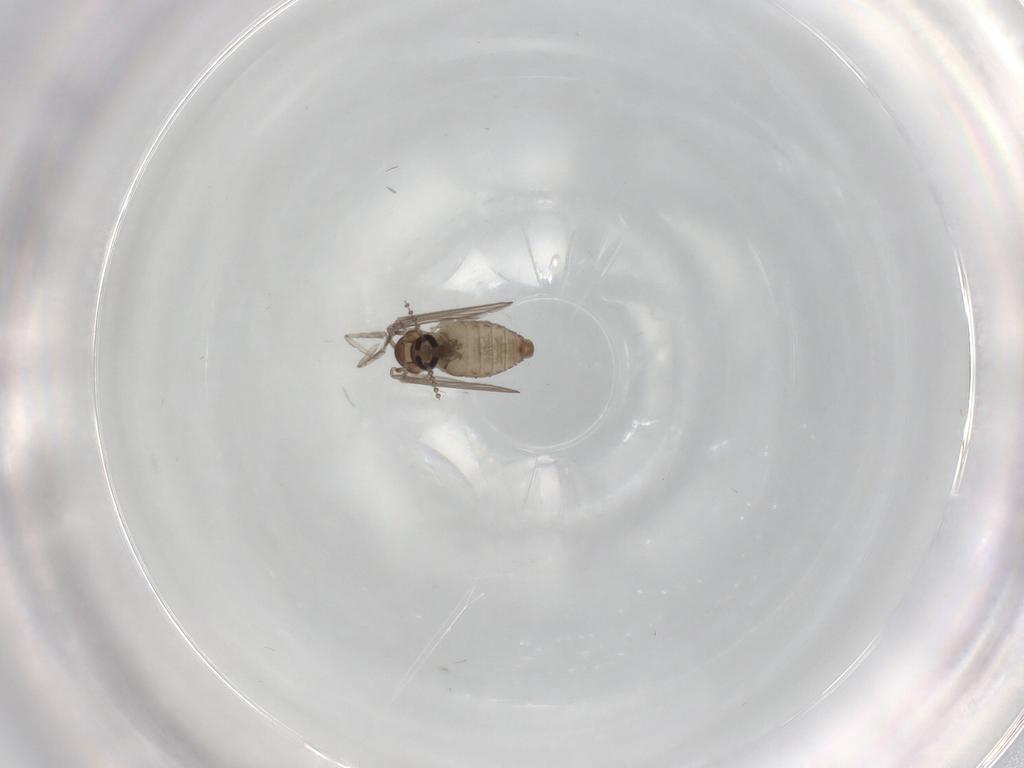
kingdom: Animalia
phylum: Arthropoda
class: Insecta
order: Diptera
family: Psychodidae
